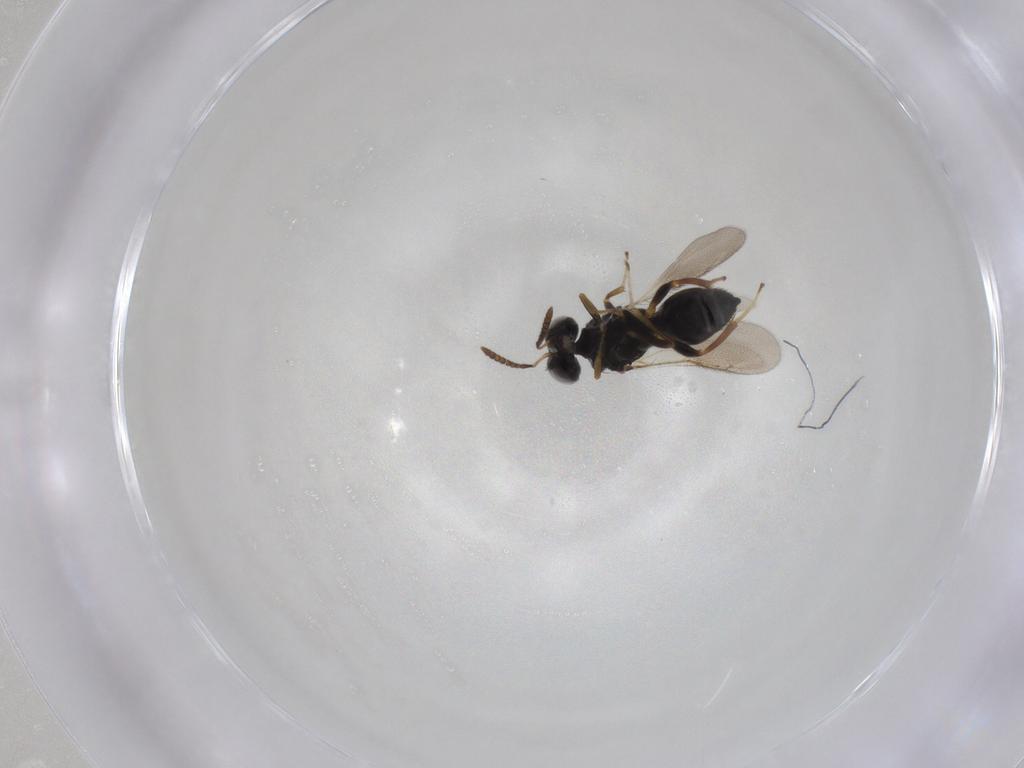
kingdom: Animalia
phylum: Arthropoda
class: Insecta
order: Hymenoptera
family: Pteromalidae
